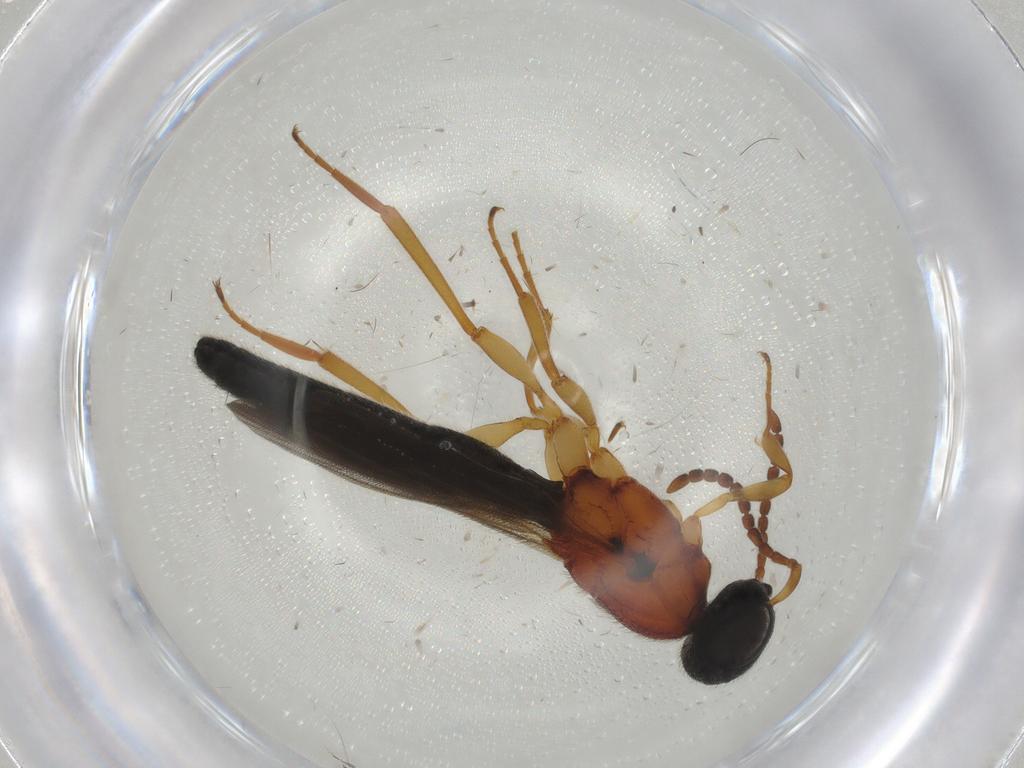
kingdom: Animalia
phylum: Arthropoda
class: Insecta
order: Hymenoptera
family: Scelionidae
